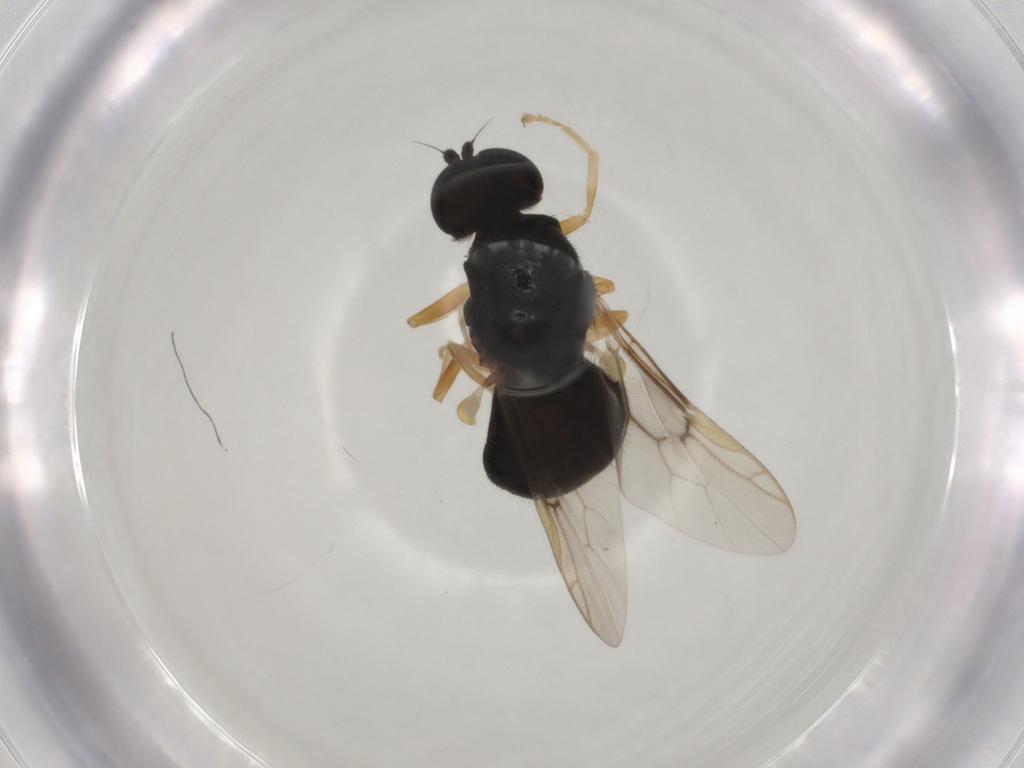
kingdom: Animalia
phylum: Arthropoda
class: Insecta
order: Diptera
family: Stratiomyidae
